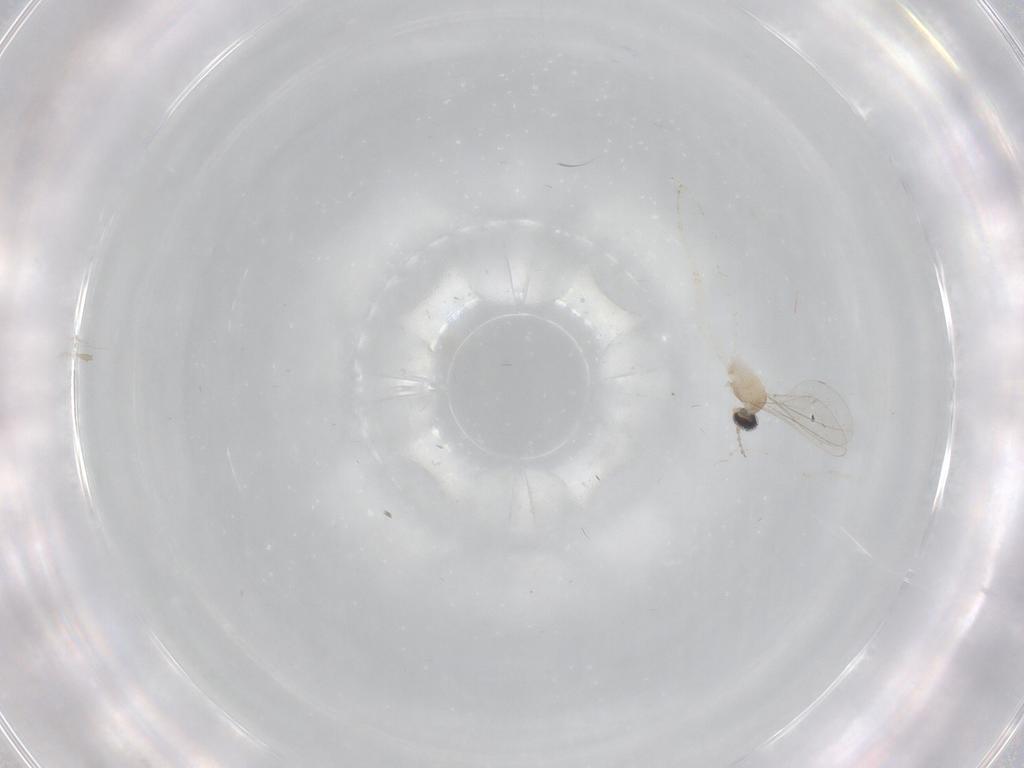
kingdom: Animalia
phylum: Arthropoda
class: Insecta
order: Diptera
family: Cecidomyiidae
